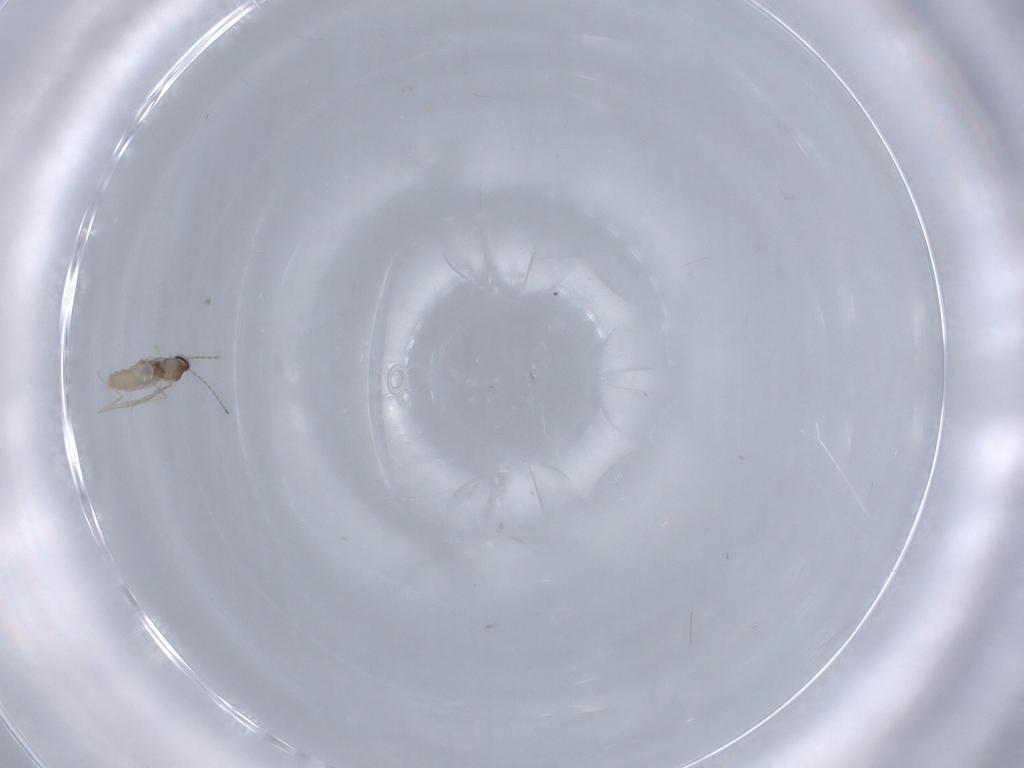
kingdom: Animalia
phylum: Arthropoda
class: Insecta
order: Diptera
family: Cecidomyiidae
